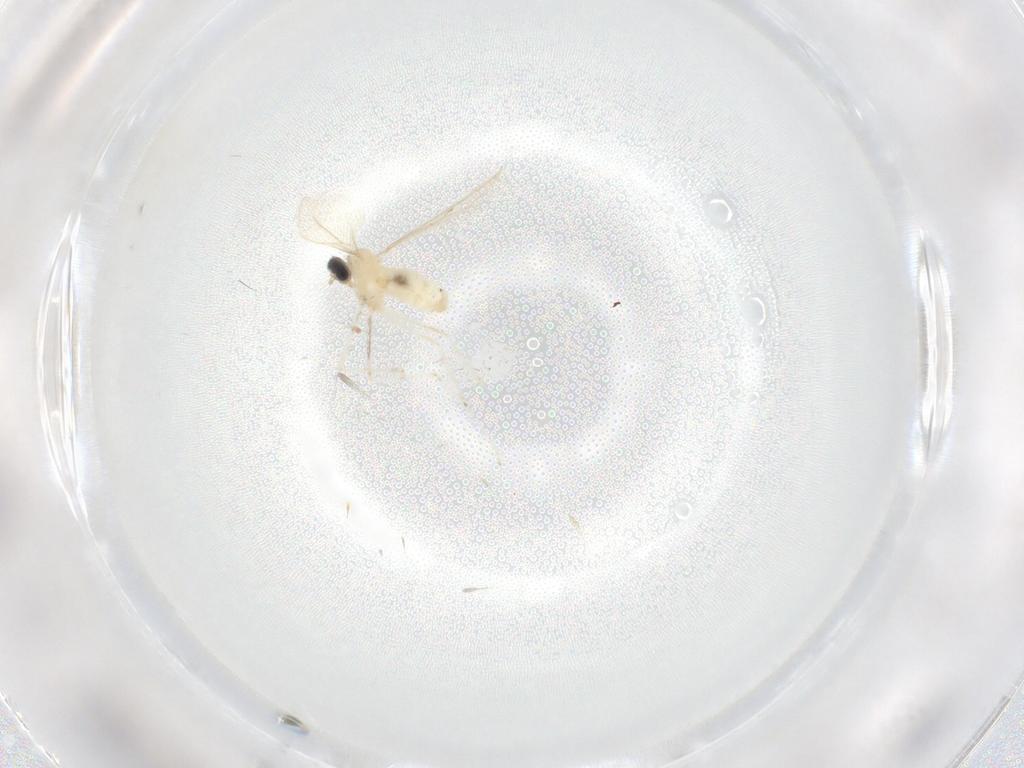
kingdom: Animalia
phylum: Arthropoda
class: Insecta
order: Diptera
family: Cecidomyiidae
